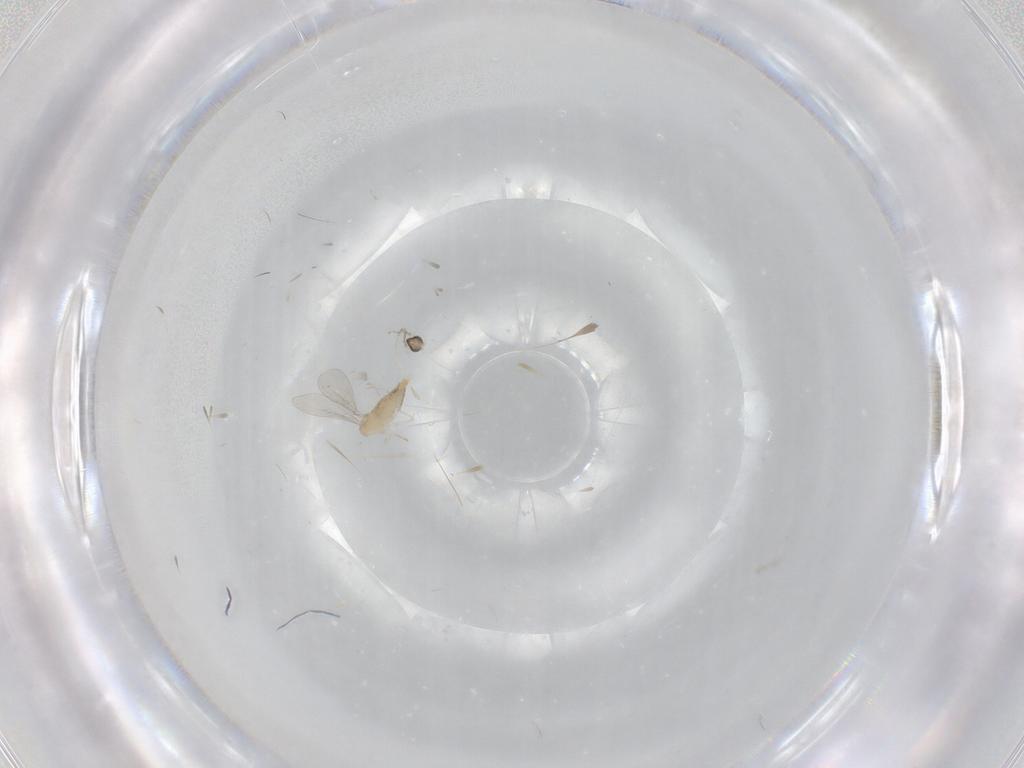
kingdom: Animalia
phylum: Arthropoda
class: Insecta
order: Diptera
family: Cecidomyiidae
